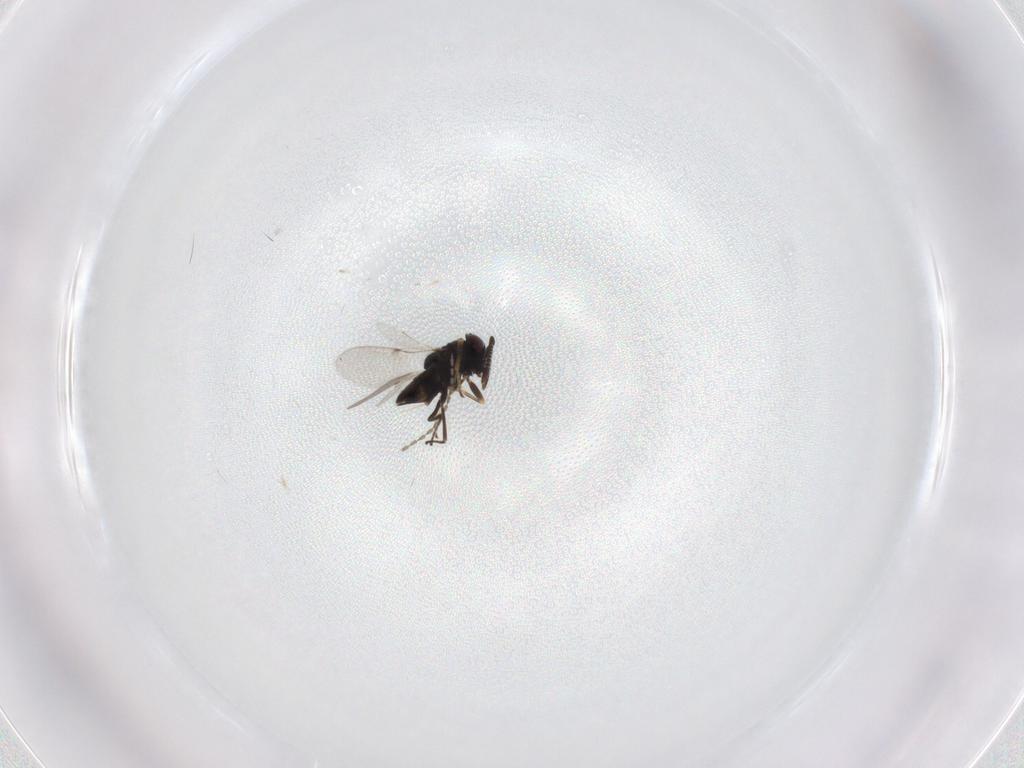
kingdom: Animalia
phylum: Arthropoda
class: Insecta
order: Hymenoptera
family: Encyrtidae
